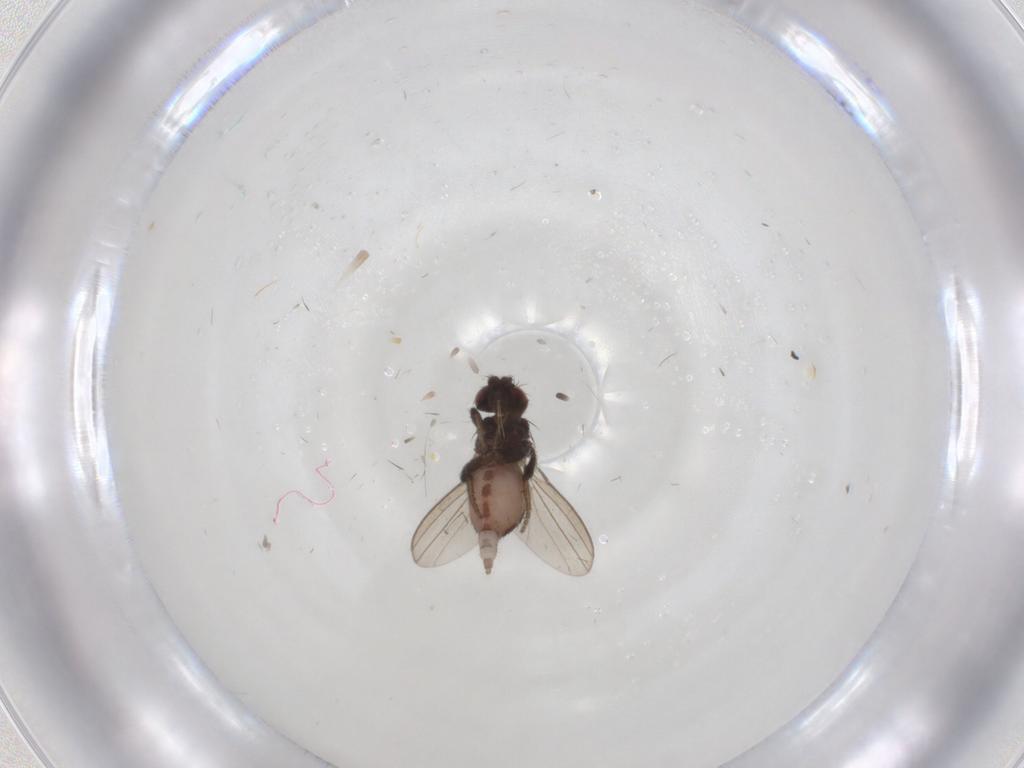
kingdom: Animalia
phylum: Arthropoda
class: Insecta
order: Diptera
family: Milichiidae
